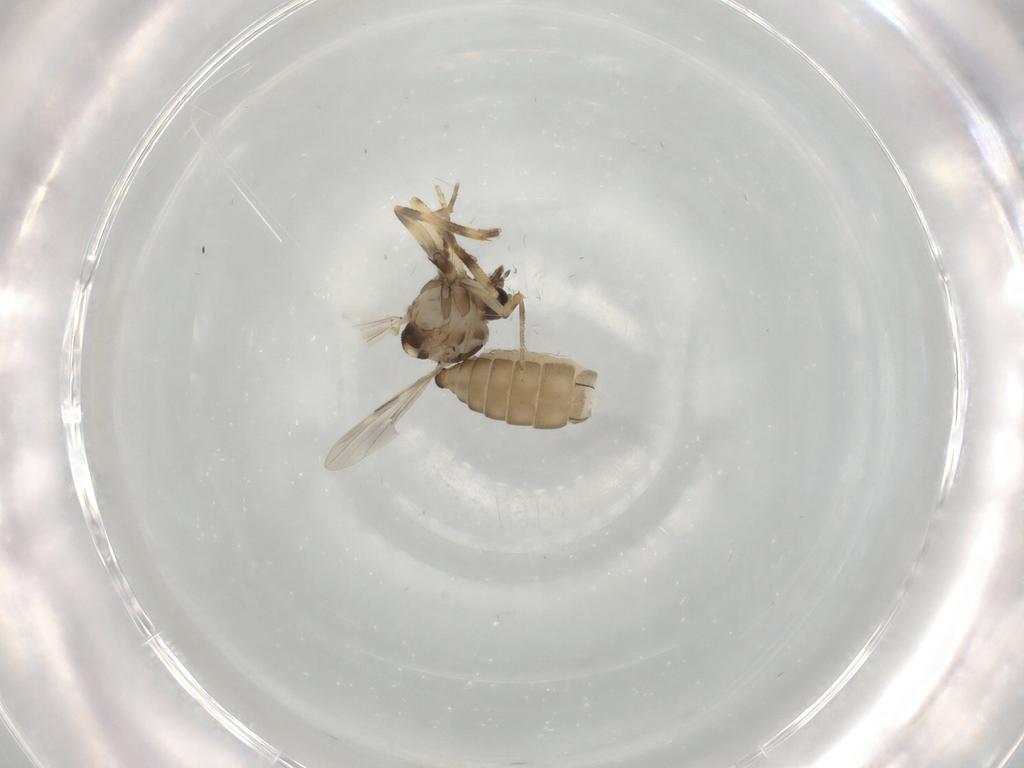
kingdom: Animalia
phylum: Arthropoda
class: Insecta
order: Diptera
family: Ceratopogonidae
